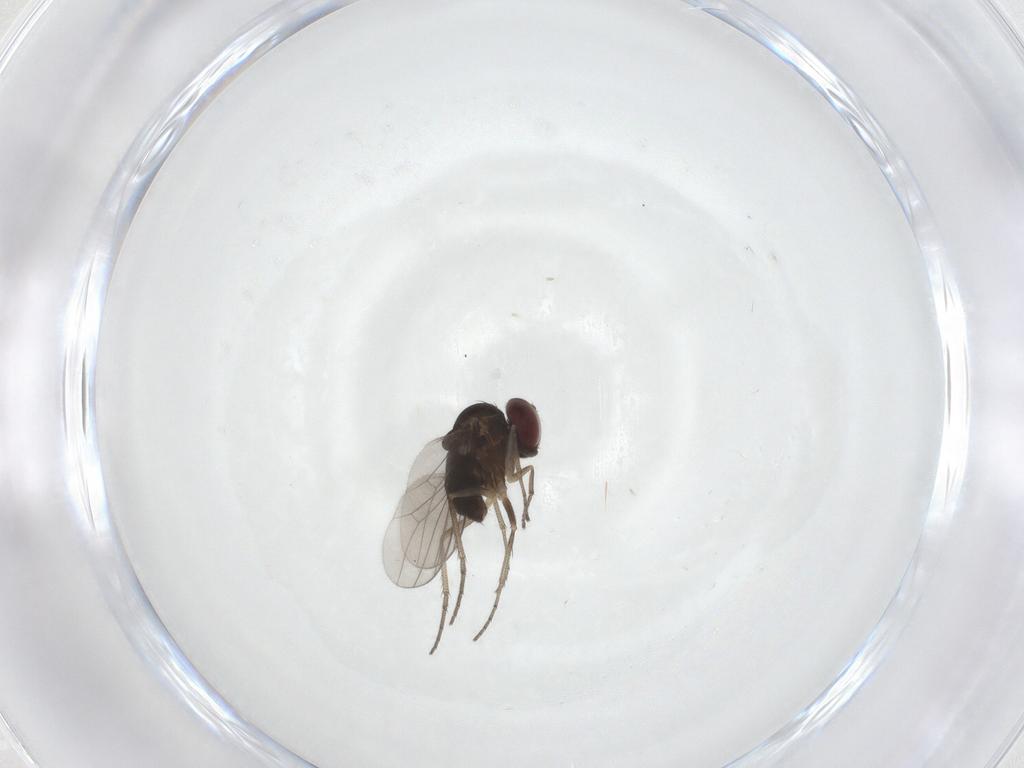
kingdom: Animalia
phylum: Arthropoda
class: Insecta
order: Diptera
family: Dolichopodidae
